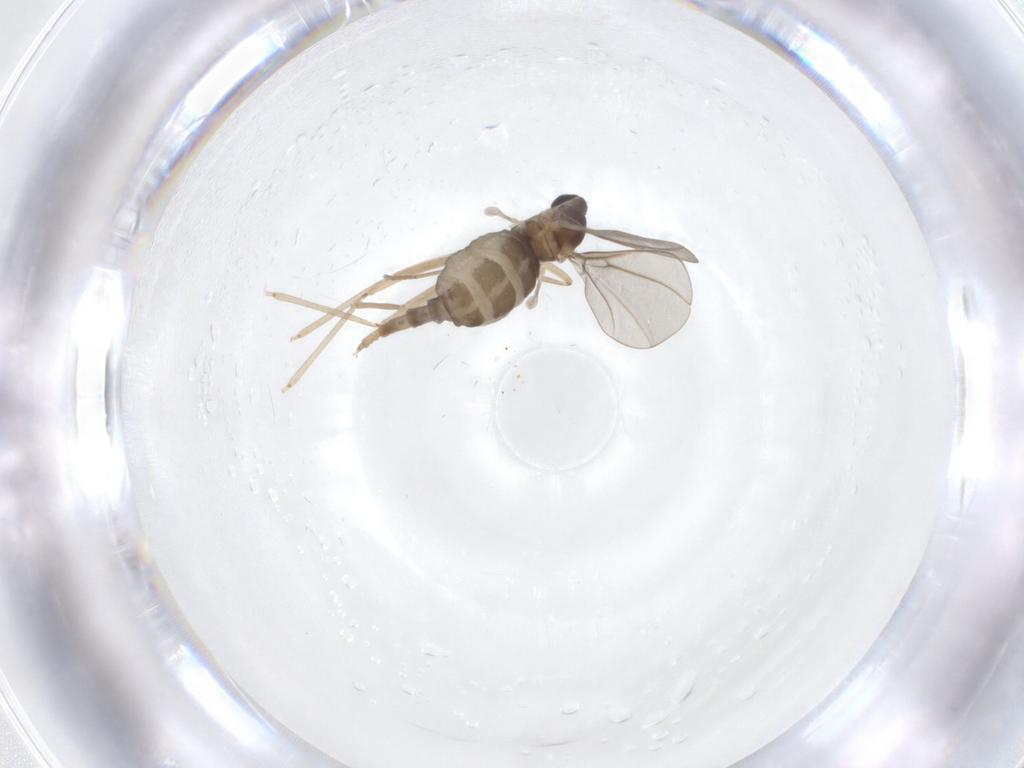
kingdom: Animalia
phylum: Arthropoda
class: Insecta
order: Diptera
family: Cecidomyiidae
